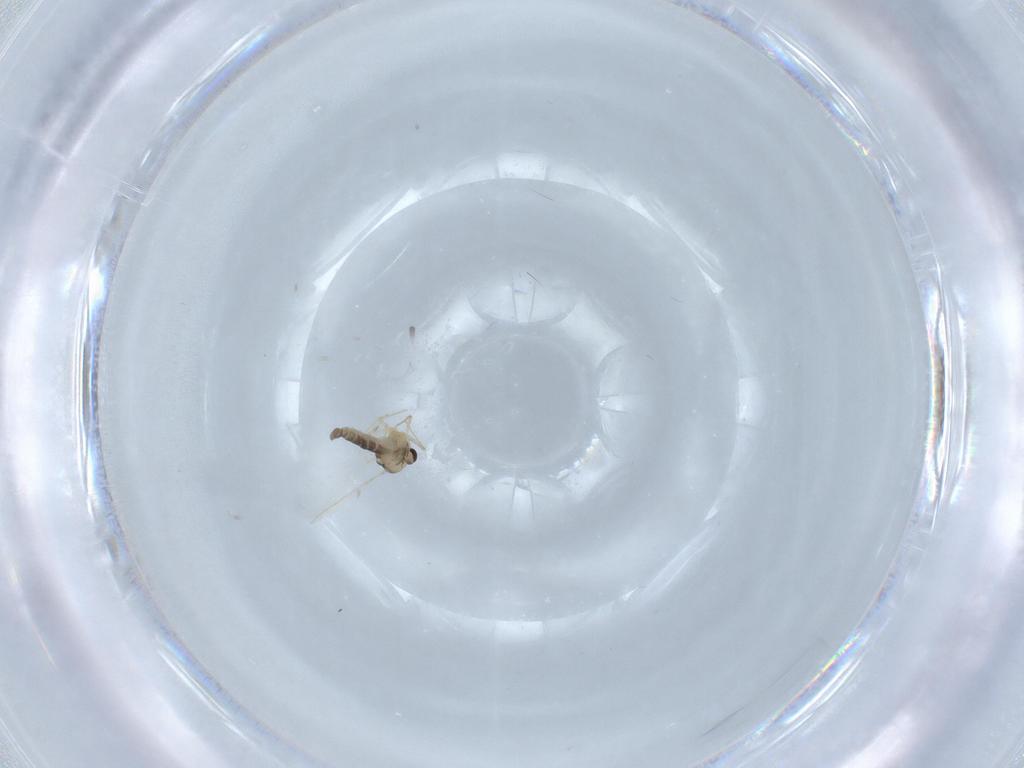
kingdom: Animalia
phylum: Arthropoda
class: Insecta
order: Diptera
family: Chironomidae
